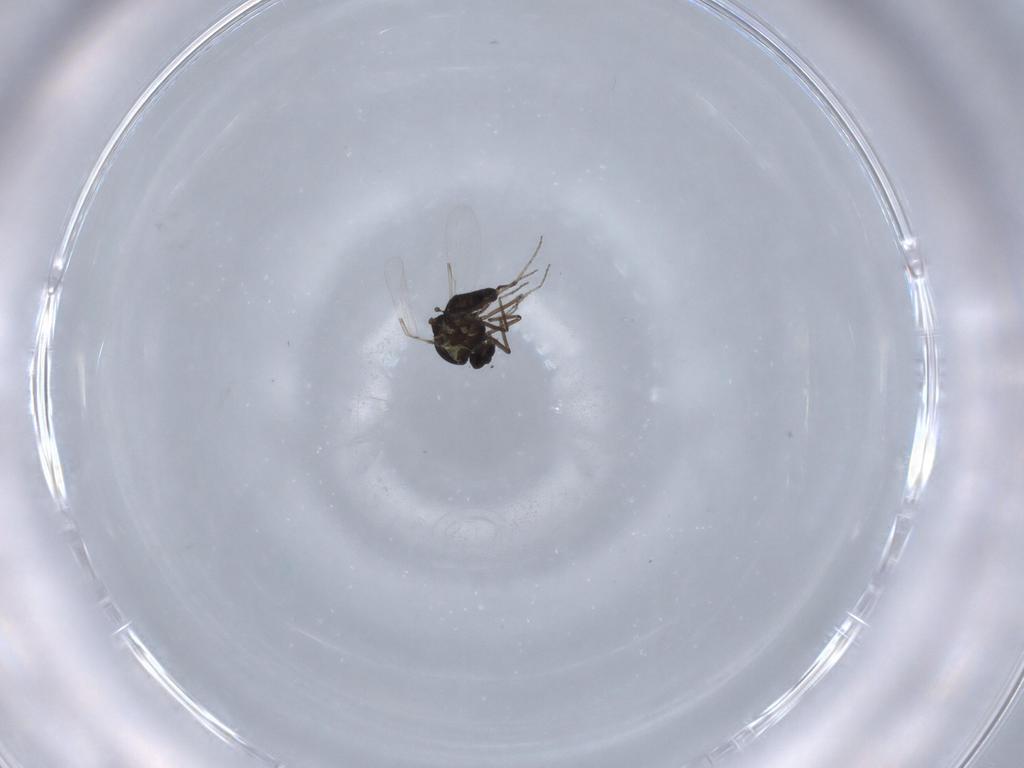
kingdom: Animalia
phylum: Arthropoda
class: Insecta
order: Diptera
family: Ceratopogonidae
